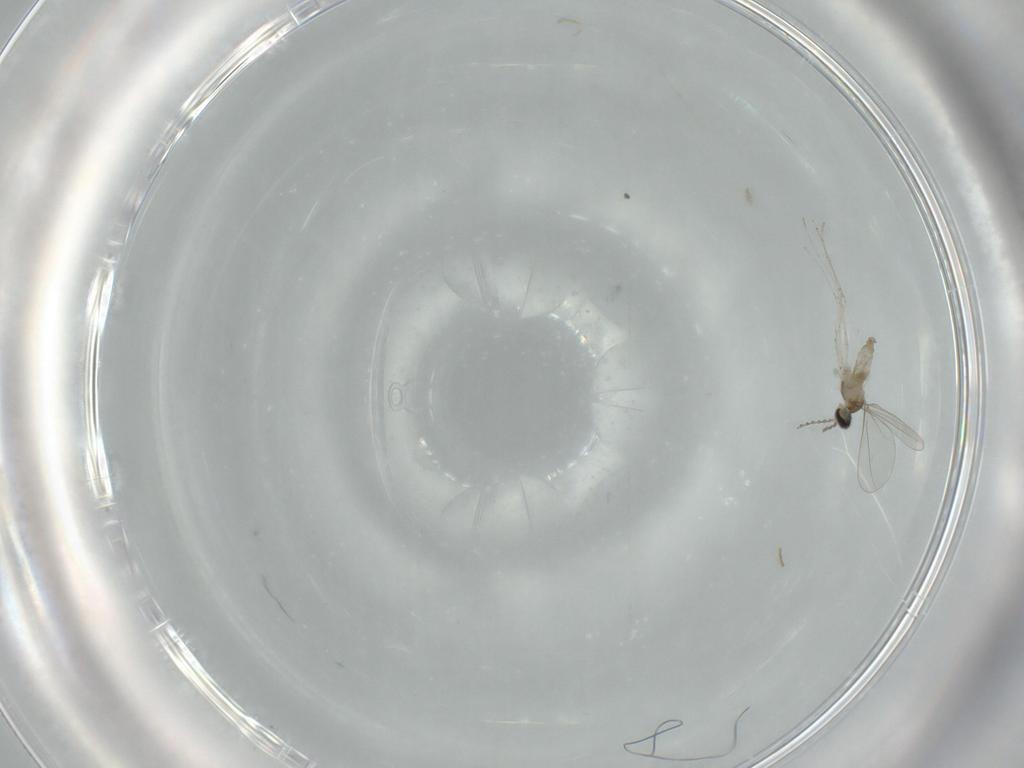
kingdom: Animalia
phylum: Arthropoda
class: Insecta
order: Diptera
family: Cecidomyiidae
